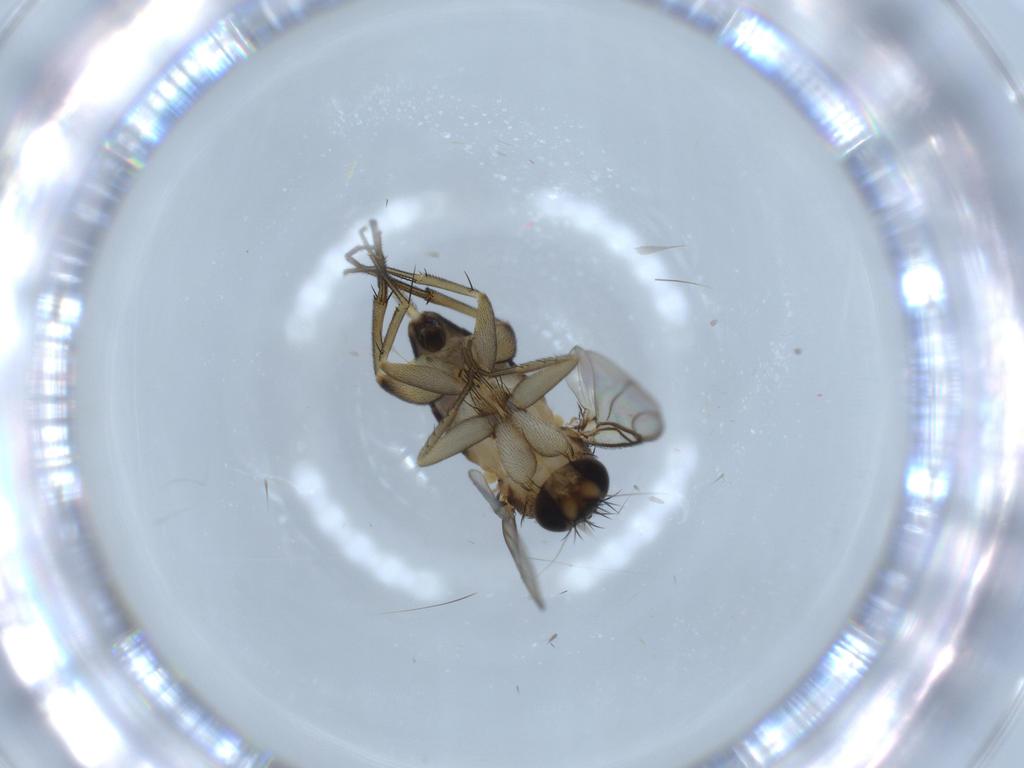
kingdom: Animalia
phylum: Arthropoda
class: Insecta
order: Diptera
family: Phoridae
